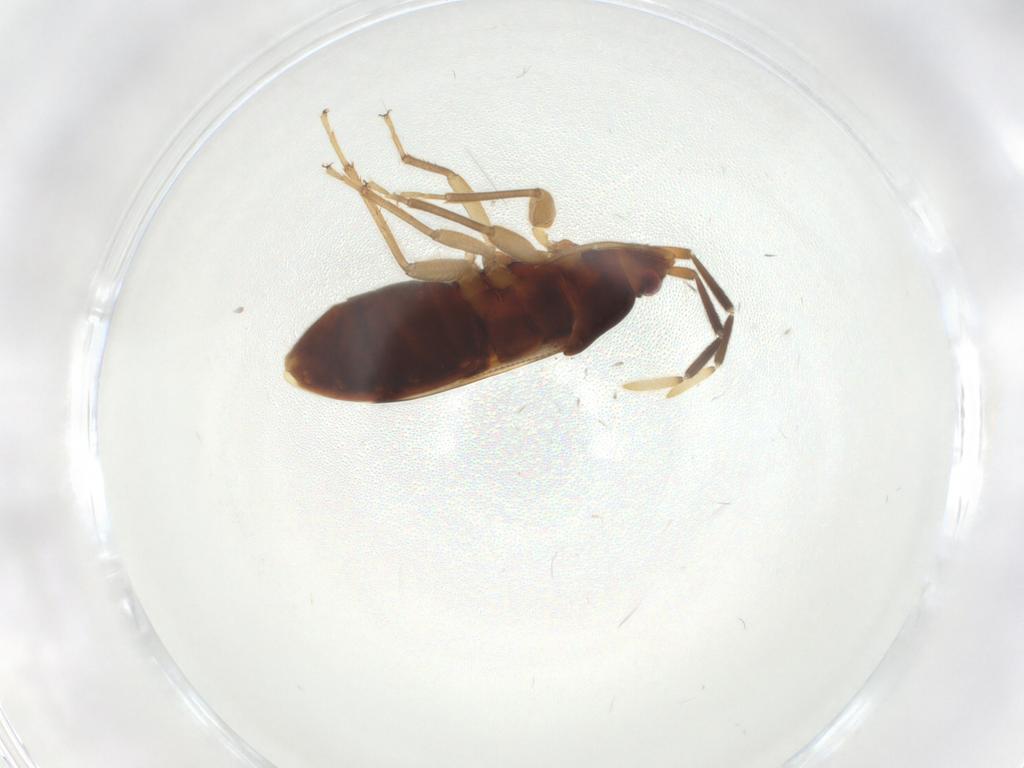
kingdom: Animalia
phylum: Arthropoda
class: Insecta
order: Hemiptera
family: Rhyparochromidae
